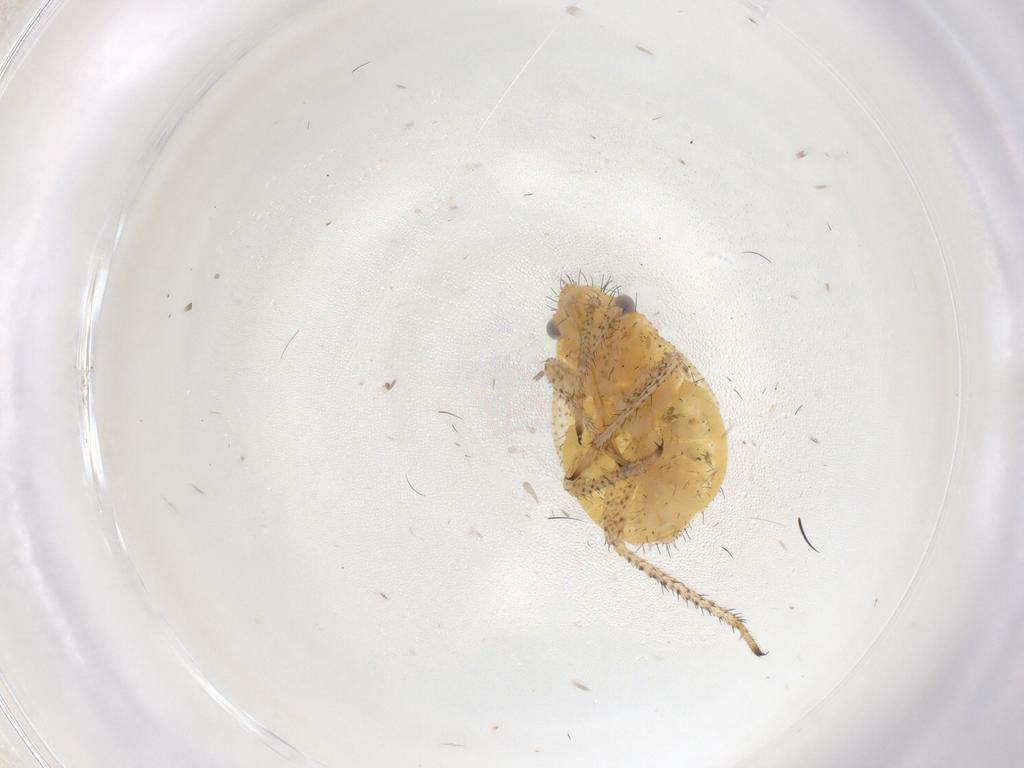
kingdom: Animalia
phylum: Arthropoda
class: Insecta
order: Hemiptera
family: Miridae
